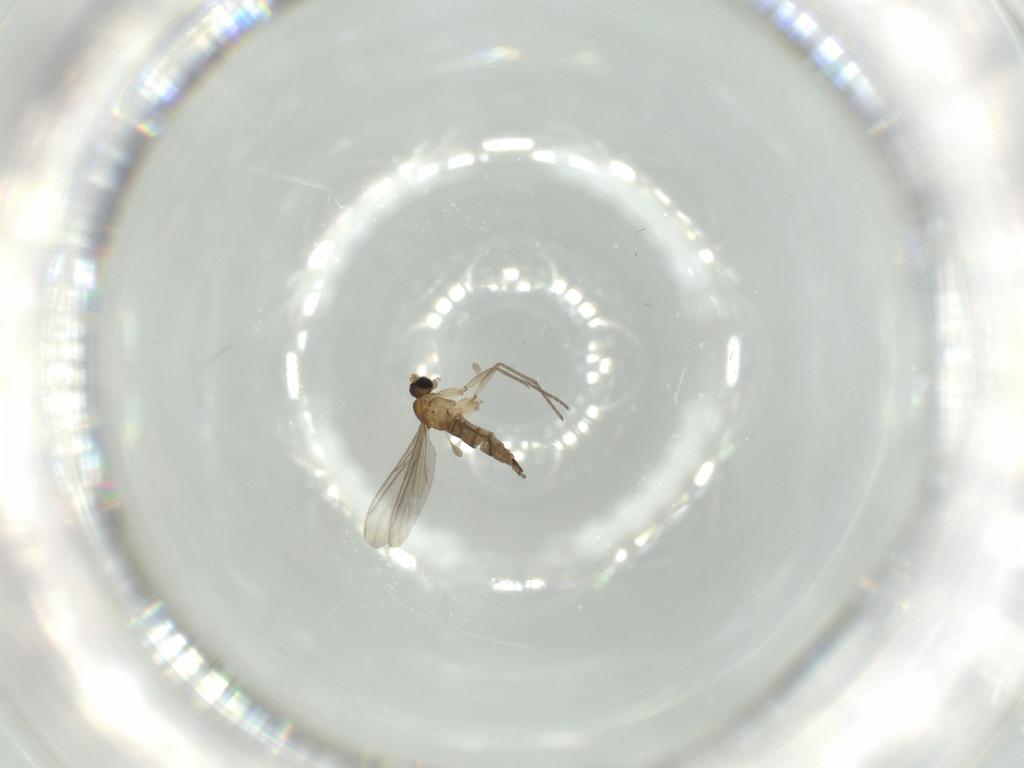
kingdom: Animalia
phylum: Arthropoda
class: Insecta
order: Diptera
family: Sciaridae
